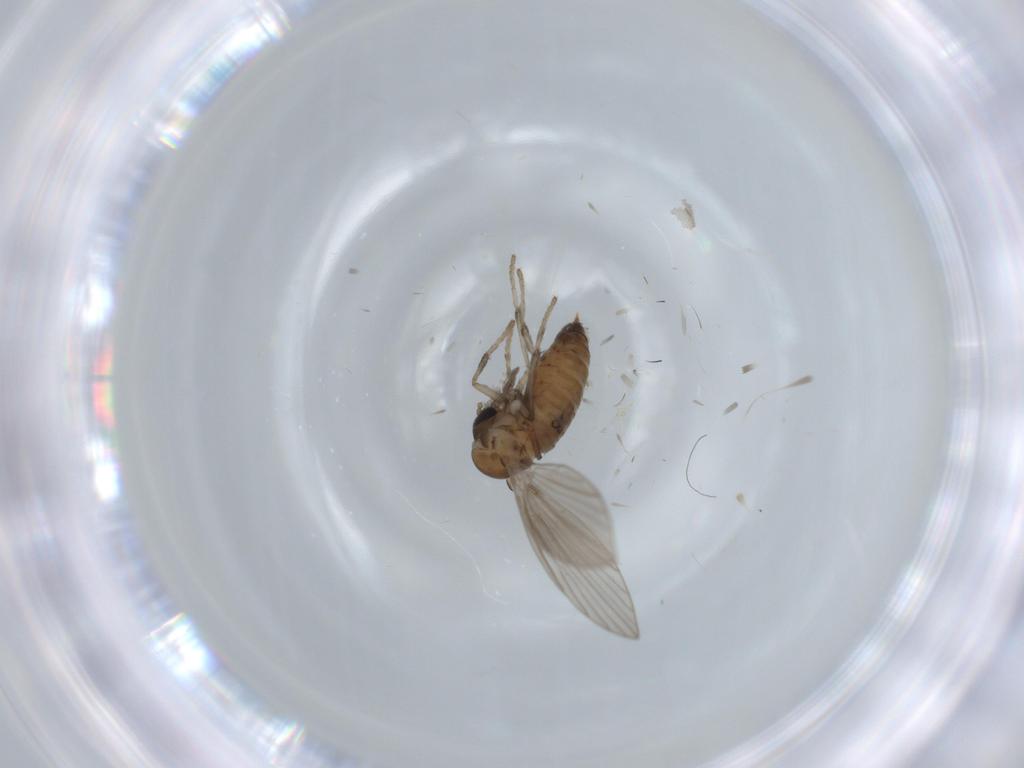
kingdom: Animalia
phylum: Arthropoda
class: Insecta
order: Diptera
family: Psychodidae
